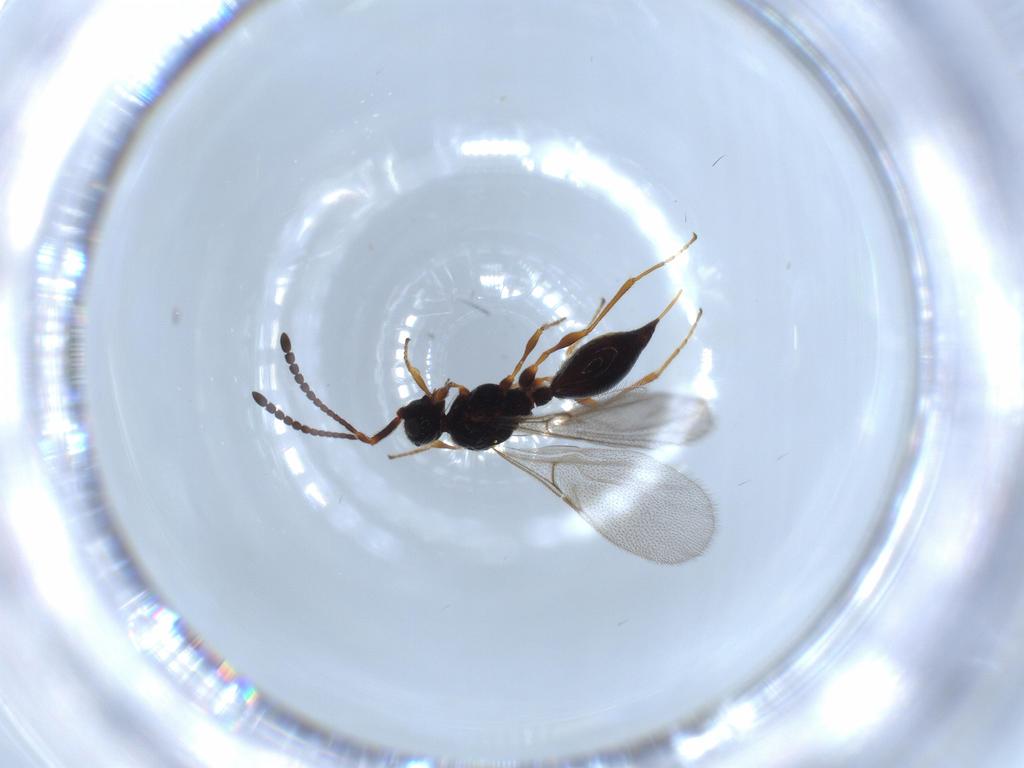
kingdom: Animalia
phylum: Arthropoda
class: Insecta
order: Hymenoptera
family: Diapriidae
